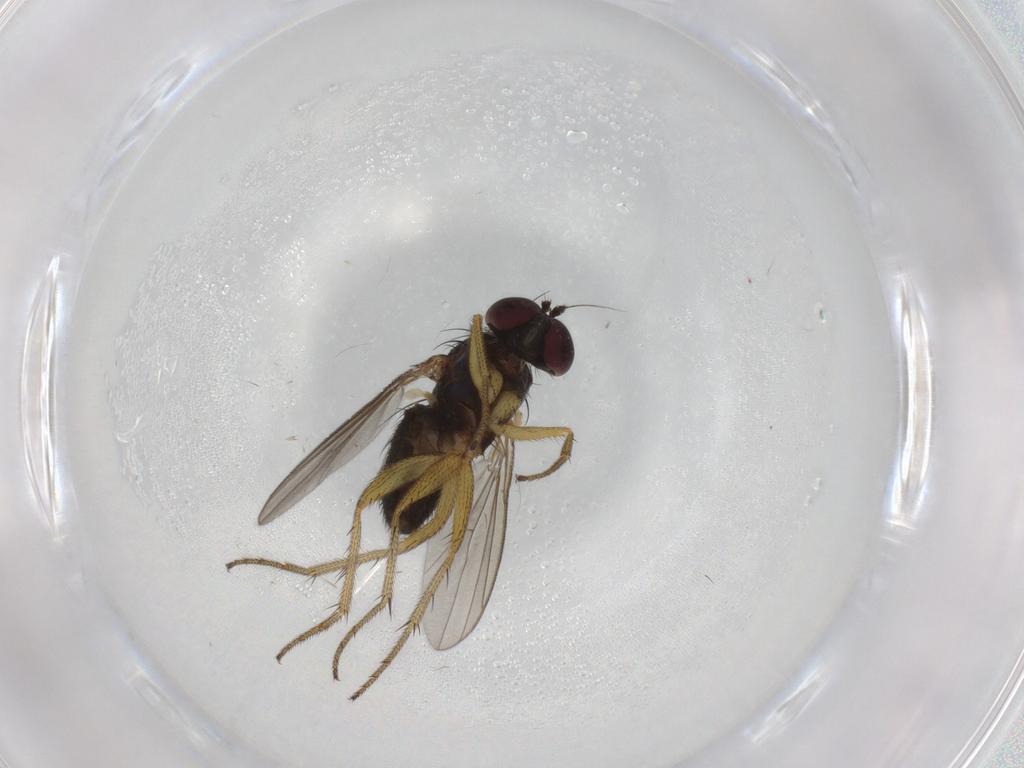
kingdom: Animalia
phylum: Arthropoda
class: Insecta
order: Diptera
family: Dolichopodidae
